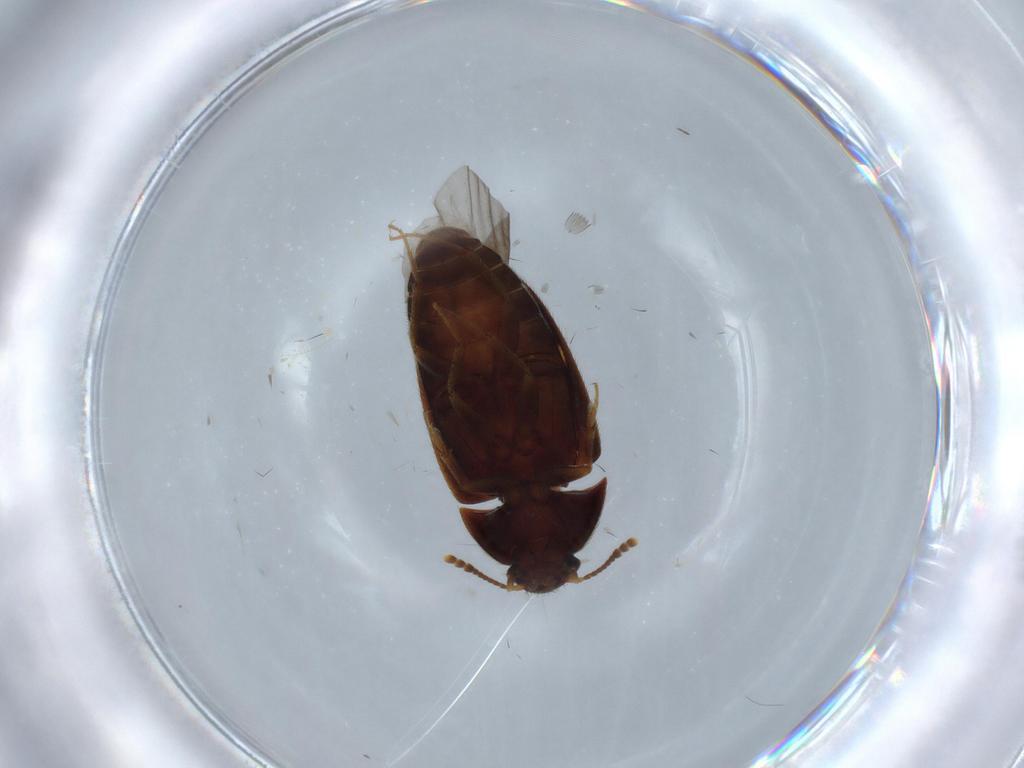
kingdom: Animalia
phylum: Arthropoda
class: Insecta
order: Coleoptera
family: Mycetophagidae
